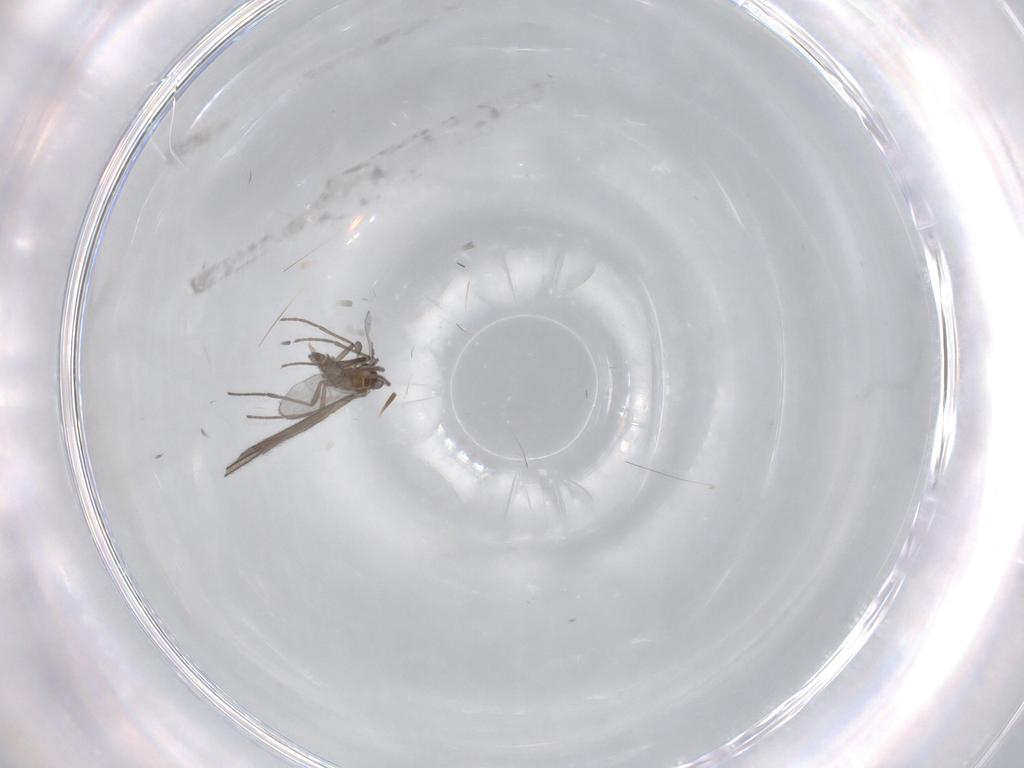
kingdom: Animalia
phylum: Arthropoda
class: Insecta
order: Diptera
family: Sciaridae
